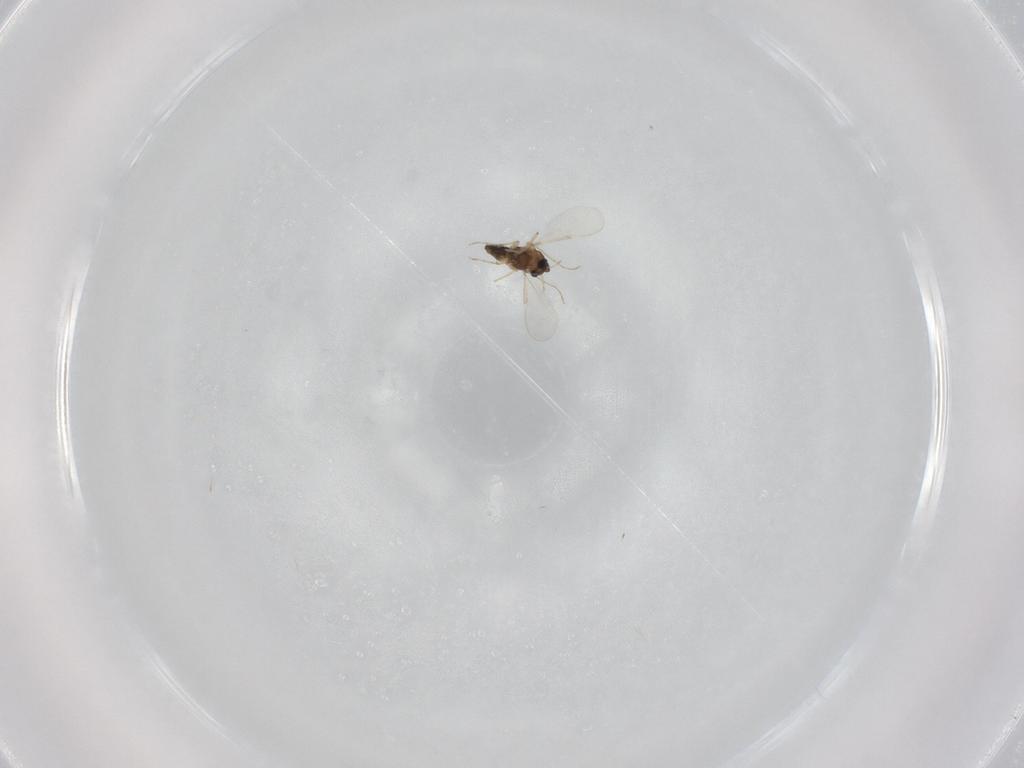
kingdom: Animalia
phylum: Arthropoda
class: Insecta
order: Diptera
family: Chironomidae
